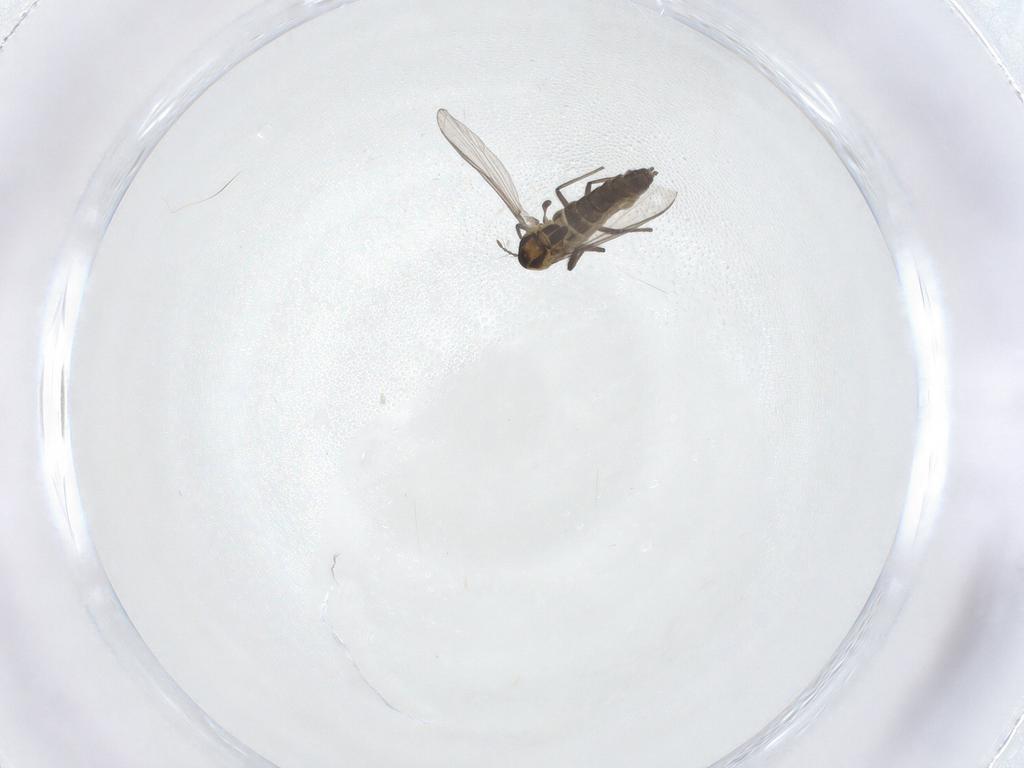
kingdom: Animalia
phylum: Arthropoda
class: Insecta
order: Diptera
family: Chironomidae
